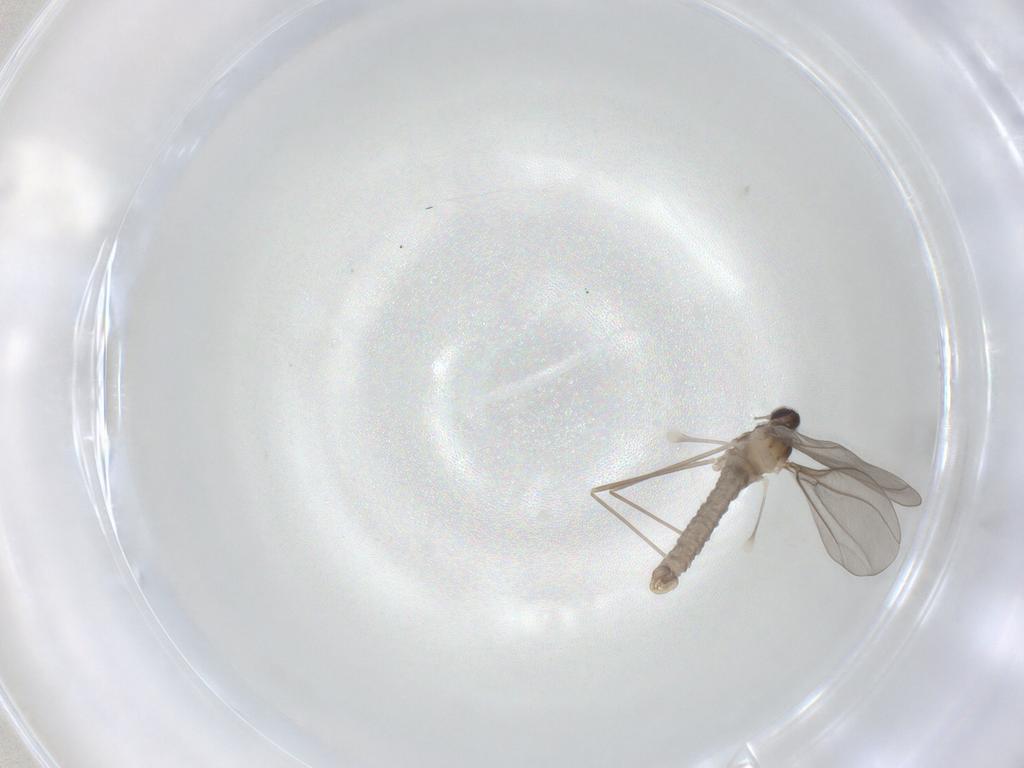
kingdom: Animalia
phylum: Arthropoda
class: Insecta
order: Diptera
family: Cecidomyiidae
